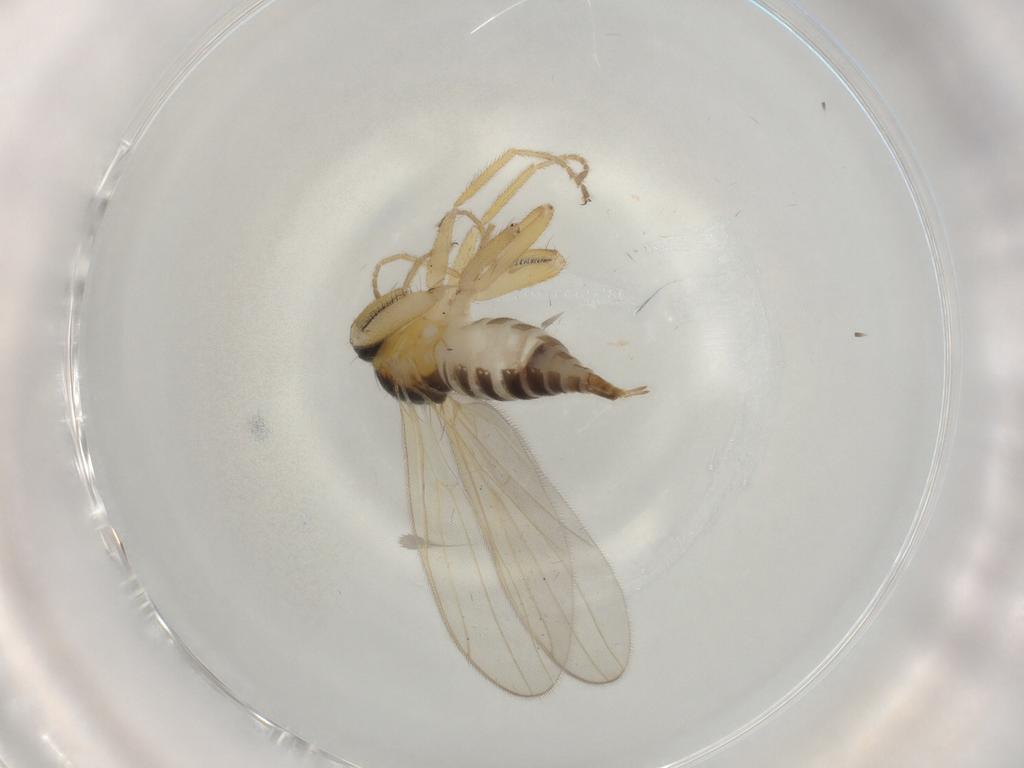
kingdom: Animalia
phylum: Arthropoda
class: Insecta
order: Diptera
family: Hybotidae
